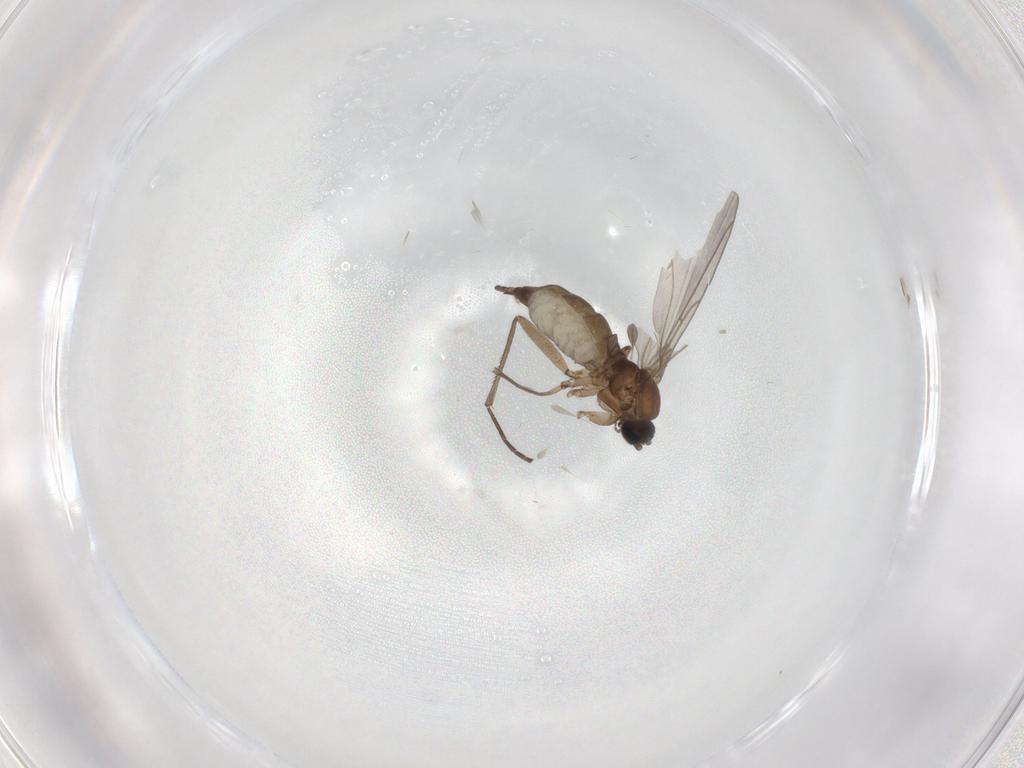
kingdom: Animalia
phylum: Arthropoda
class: Insecta
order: Diptera
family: Sciaridae
